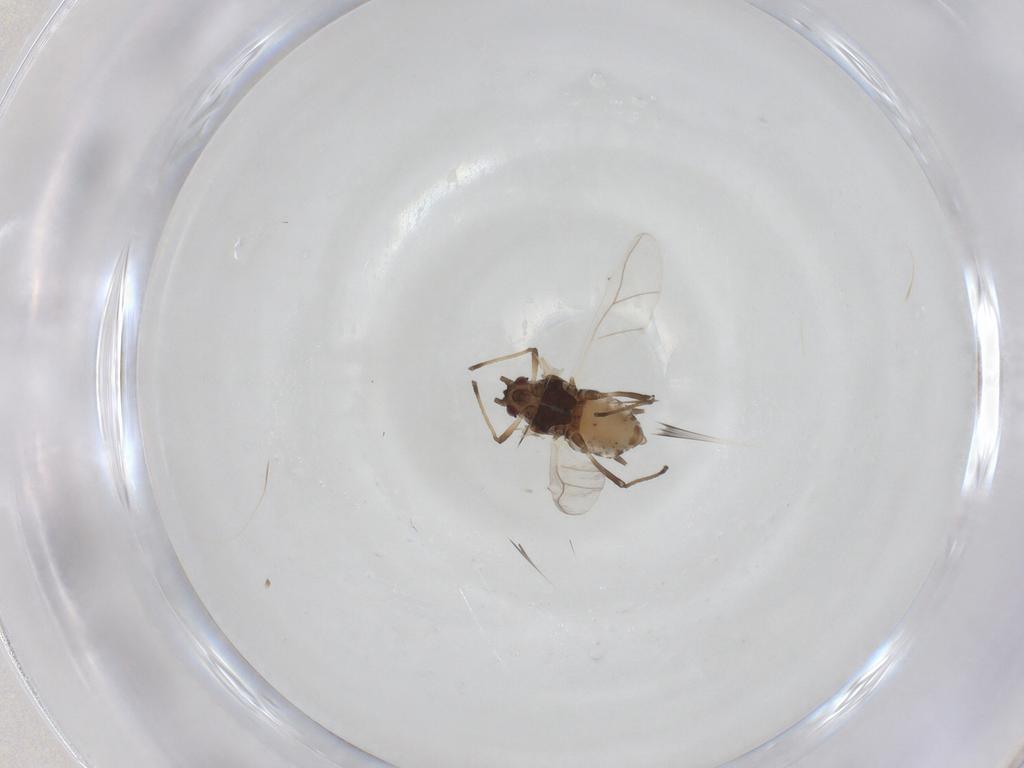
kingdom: Animalia
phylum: Arthropoda
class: Insecta
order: Hemiptera
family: Aphididae
